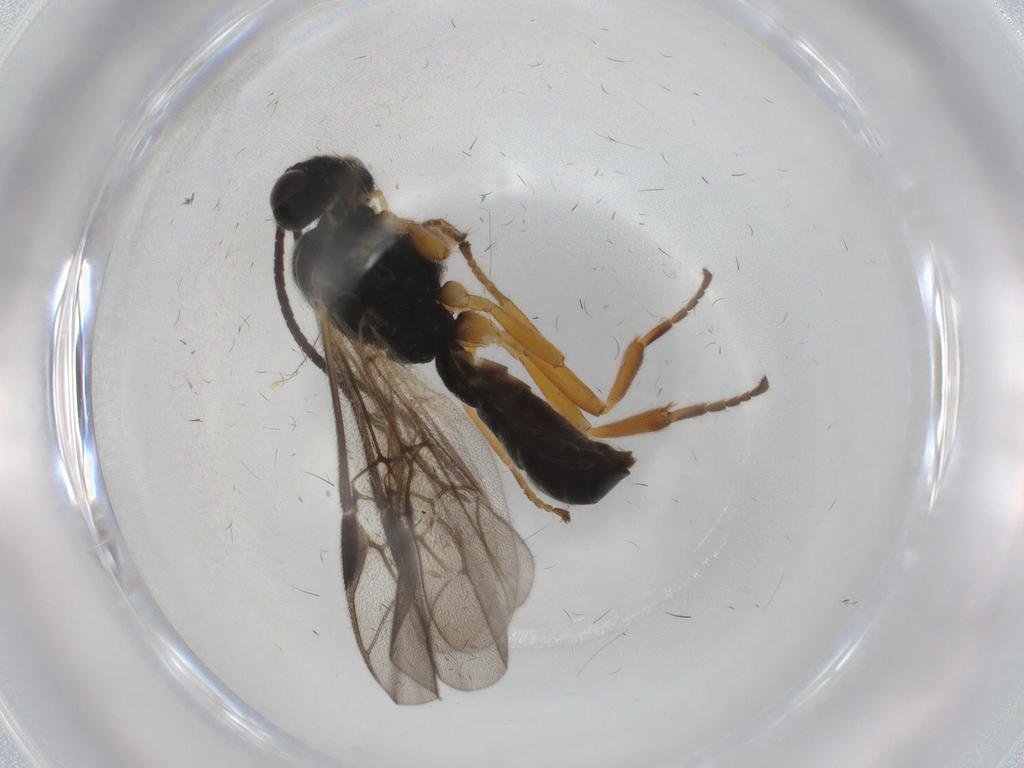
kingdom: Animalia
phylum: Arthropoda
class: Insecta
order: Hymenoptera
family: Braconidae
